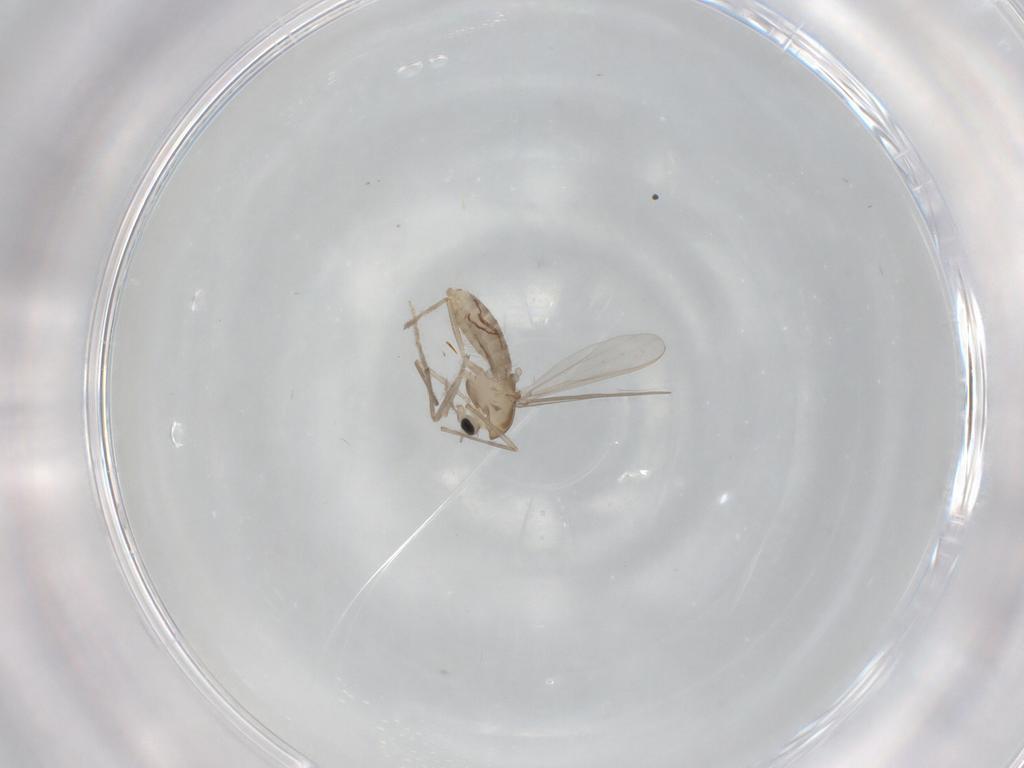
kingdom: Animalia
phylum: Arthropoda
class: Insecta
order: Diptera
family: Chironomidae
